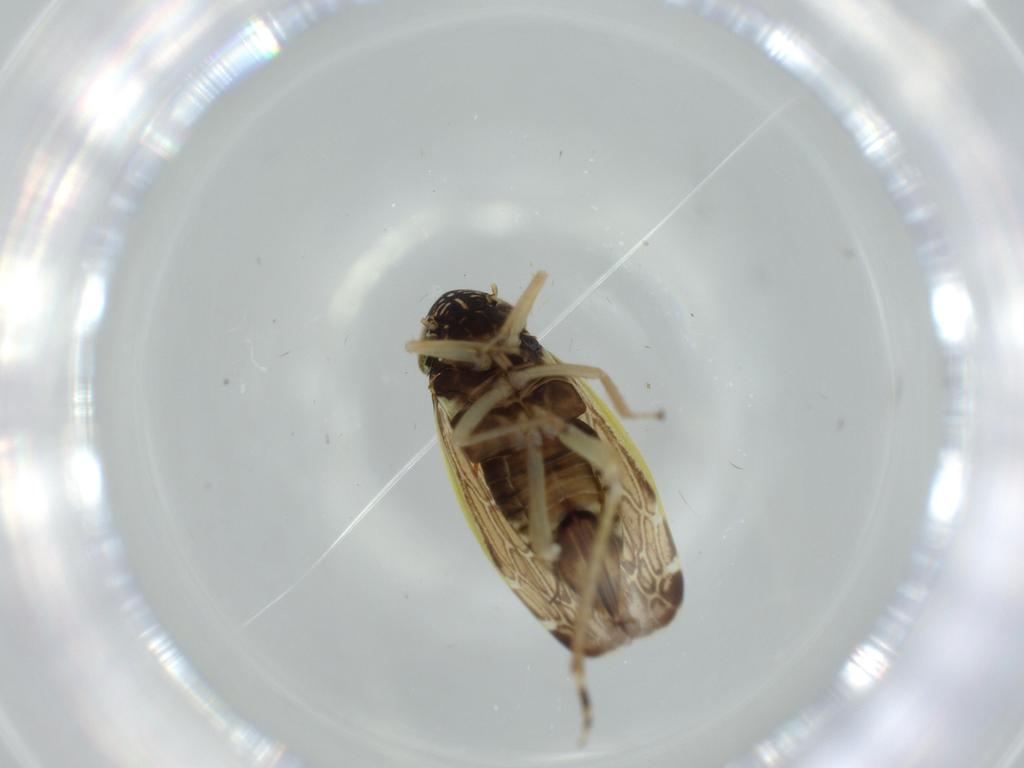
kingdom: Animalia
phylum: Arthropoda
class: Insecta
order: Hemiptera
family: Cicadellidae
